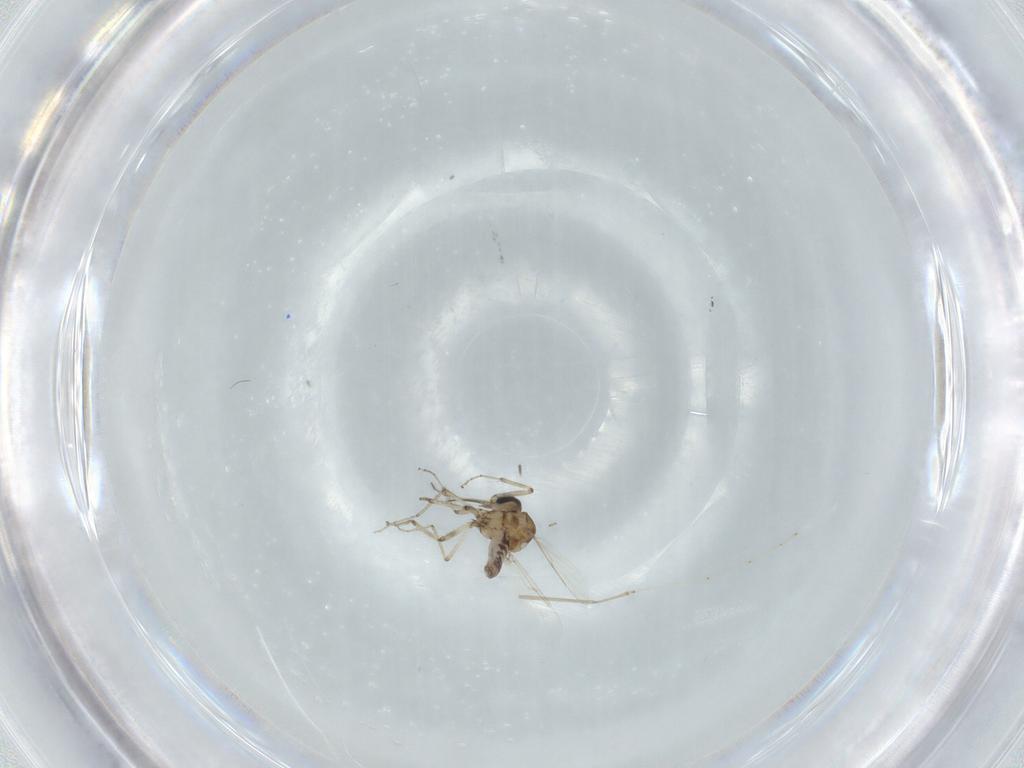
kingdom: Animalia
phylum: Arthropoda
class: Insecta
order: Diptera
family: Ceratopogonidae
